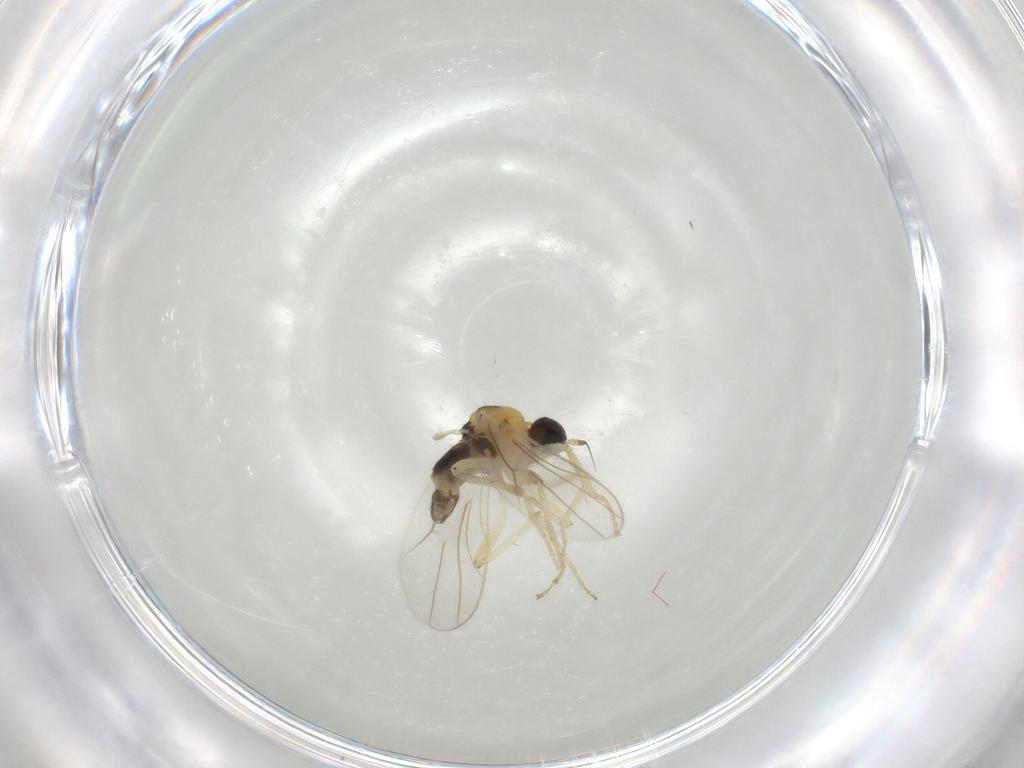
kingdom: Animalia
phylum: Arthropoda
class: Insecta
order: Diptera
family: Hybotidae
